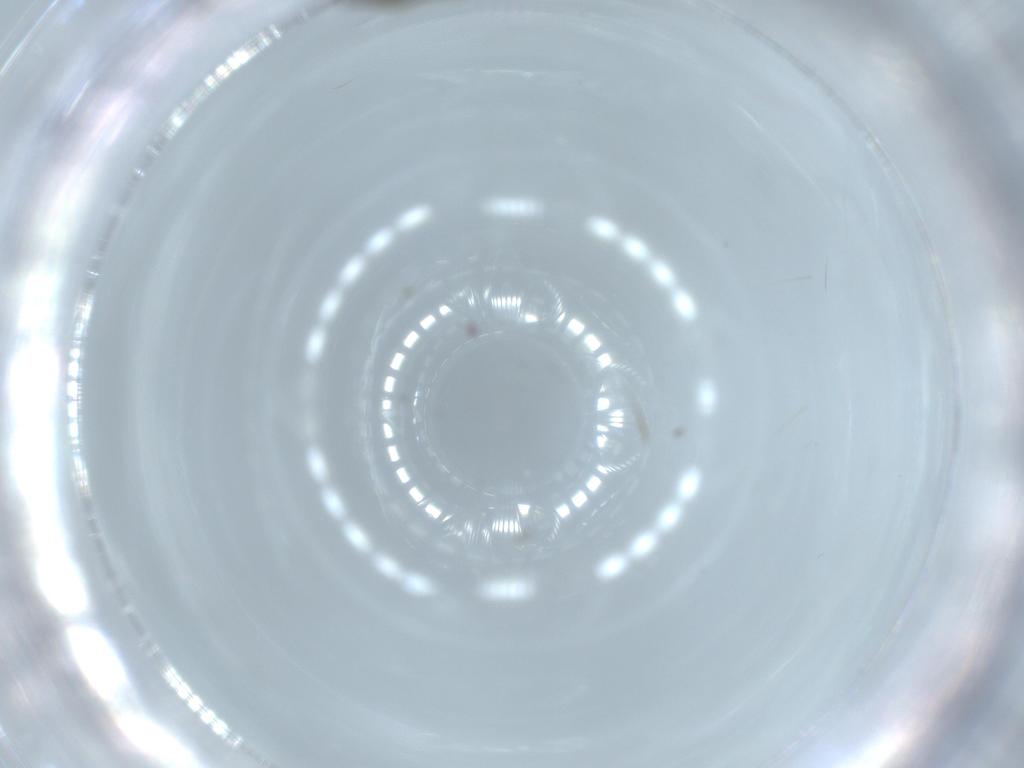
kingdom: Animalia
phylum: Arthropoda
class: Insecta
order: Diptera
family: Sciaridae
